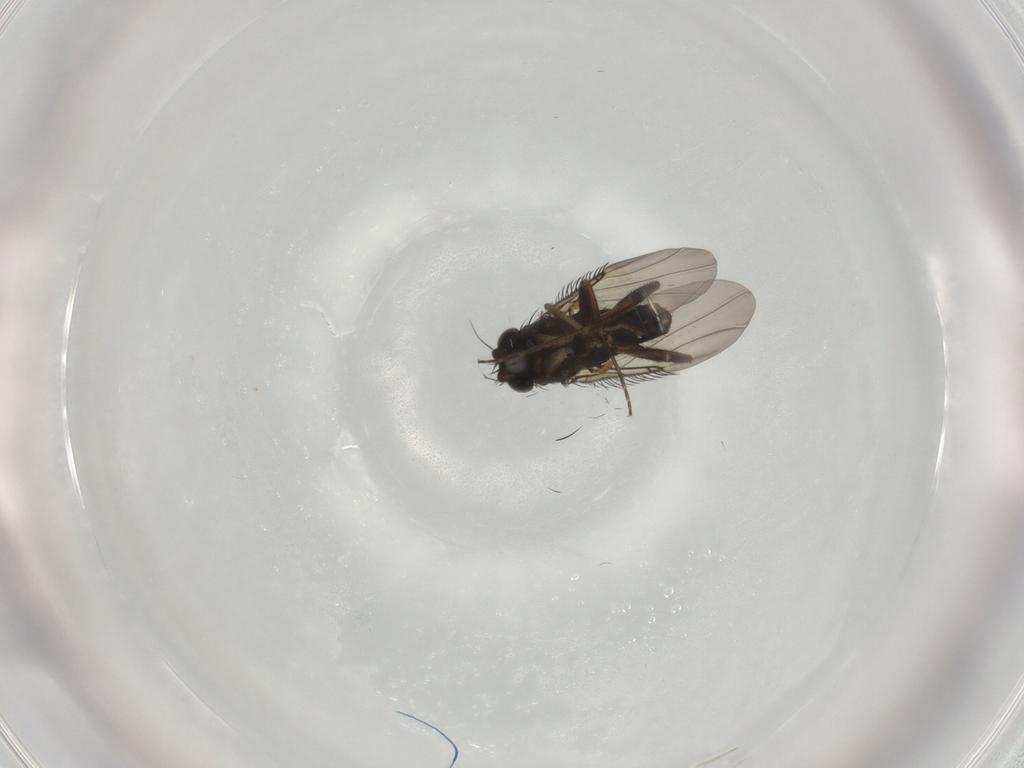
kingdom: Animalia
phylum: Arthropoda
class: Insecta
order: Diptera
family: Phoridae
